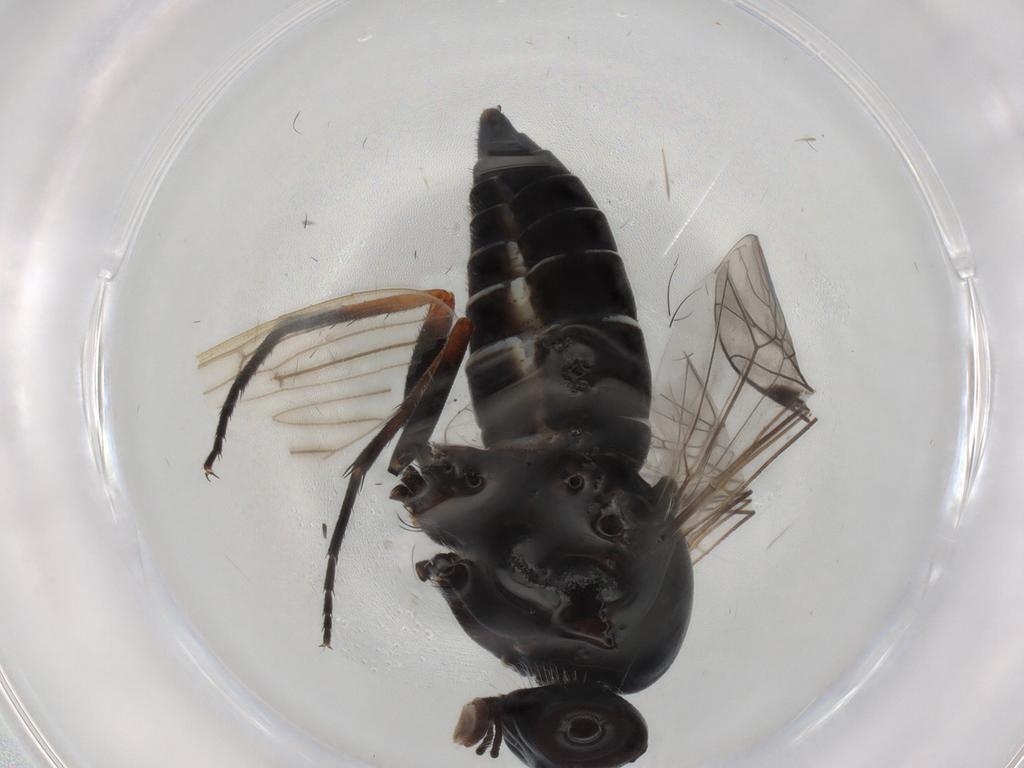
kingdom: Animalia
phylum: Arthropoda
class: Insecta
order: Diptera
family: Therevidae
